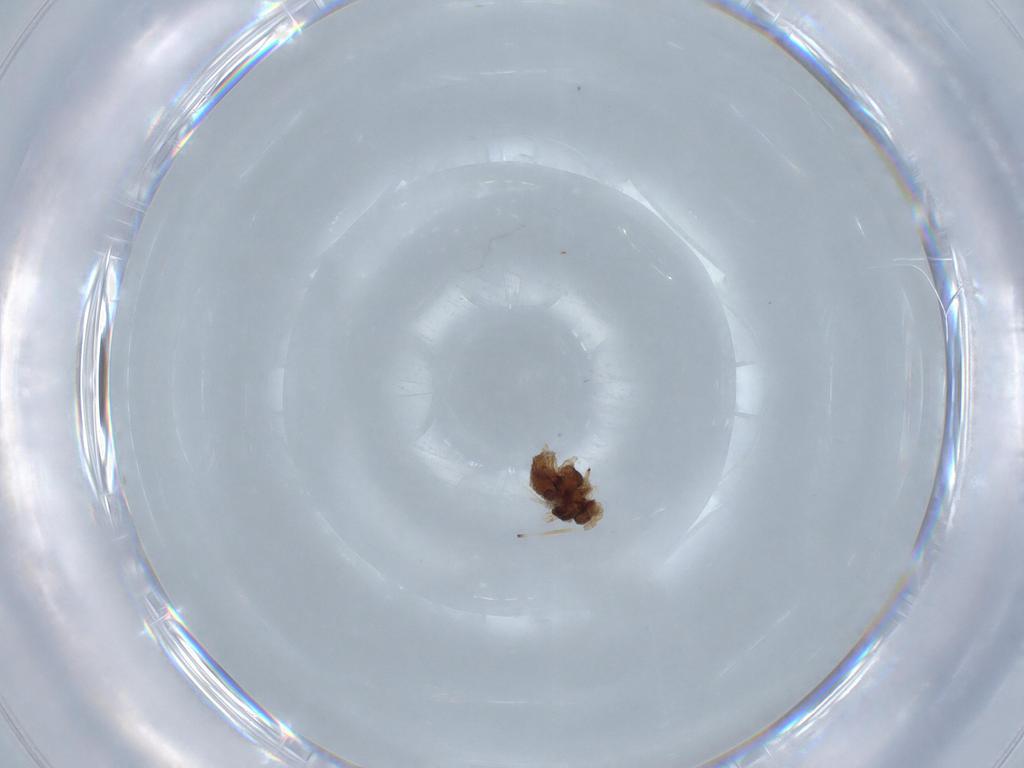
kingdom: Animalia
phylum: Arthropoda
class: Insecta
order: Hemiptera
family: Aphididae
